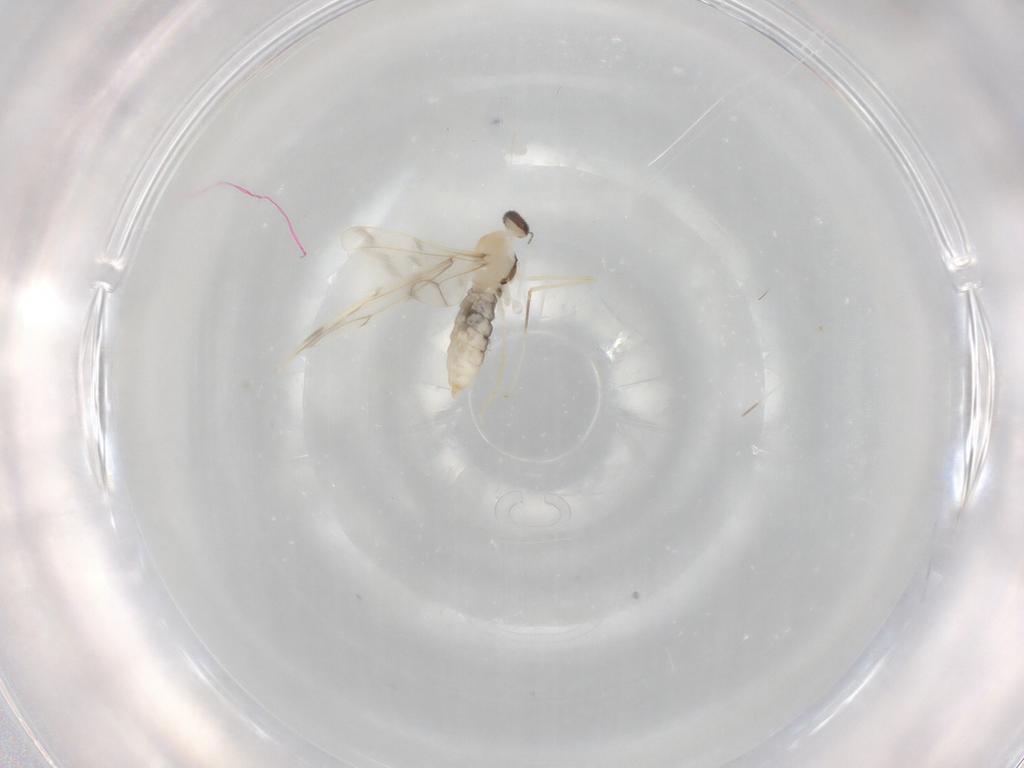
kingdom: Animalia
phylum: Arthropoda
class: Insecta
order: Diptera
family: Cecidomyiidae
